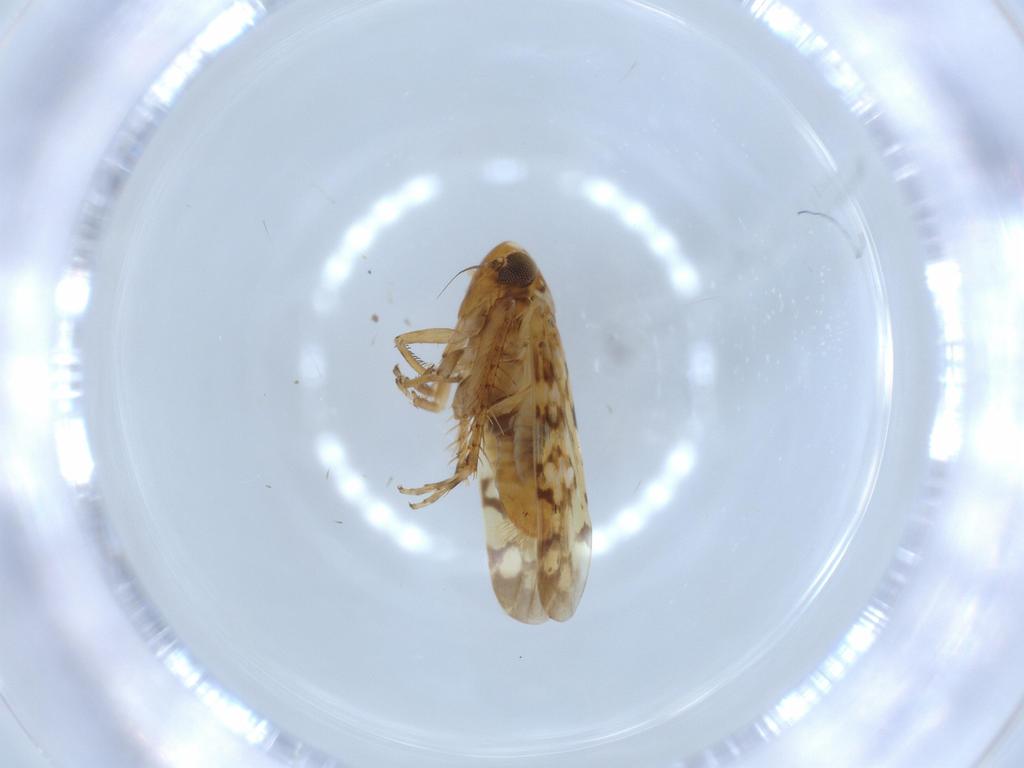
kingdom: Animalia
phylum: Arthropoda
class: Insecta
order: Hemiptera
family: Cicadellidae
